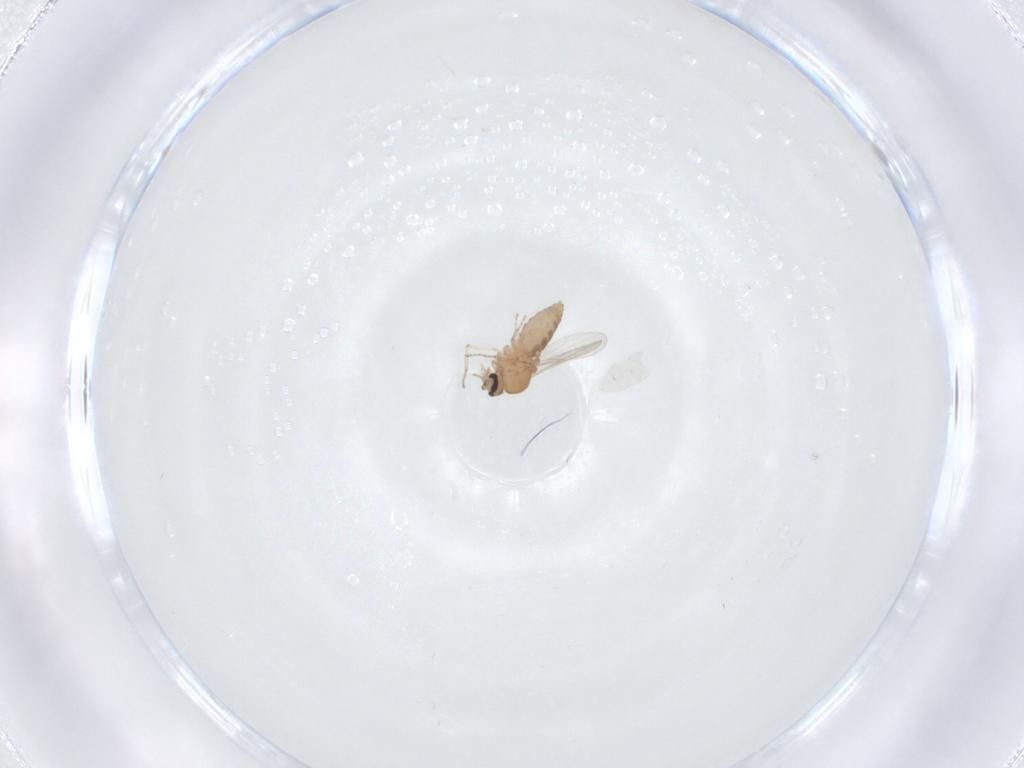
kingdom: Animalia
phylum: Arthropoda
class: Insecta
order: Diptera
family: Ceratopogonidae
